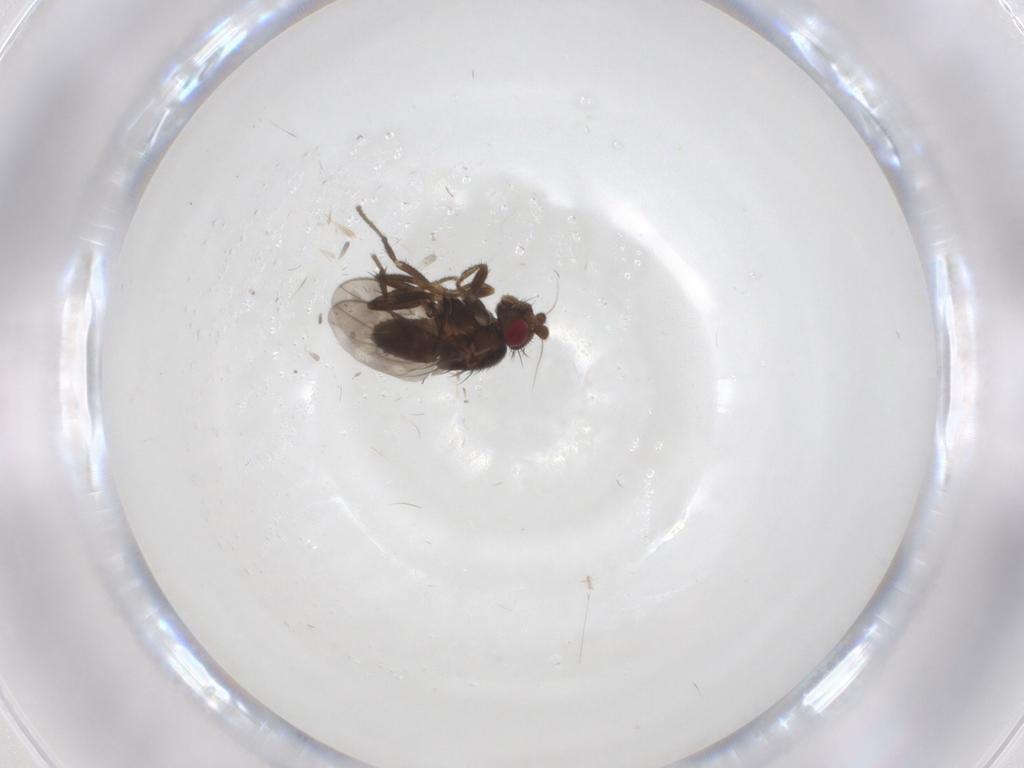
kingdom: Animalia
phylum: Arthropoda
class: Insecta
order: Diptera
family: Sphaeroceridae
